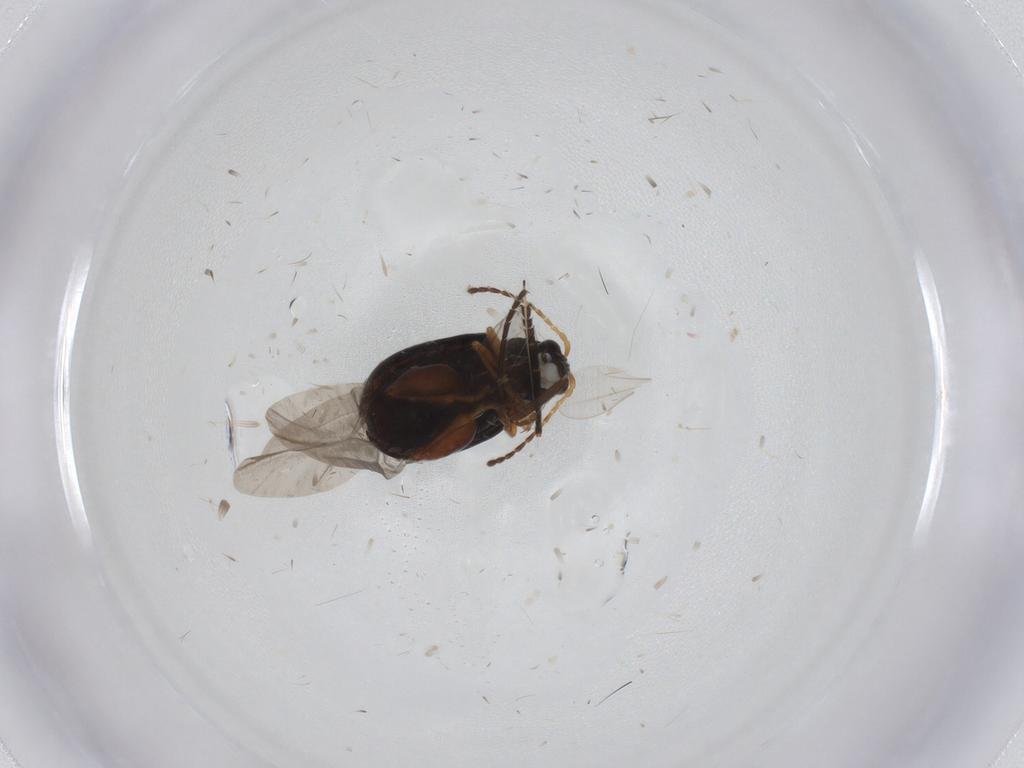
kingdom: Animalia
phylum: Arthropoda
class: Insecta
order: Coleoptera
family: Chrysomelidae
